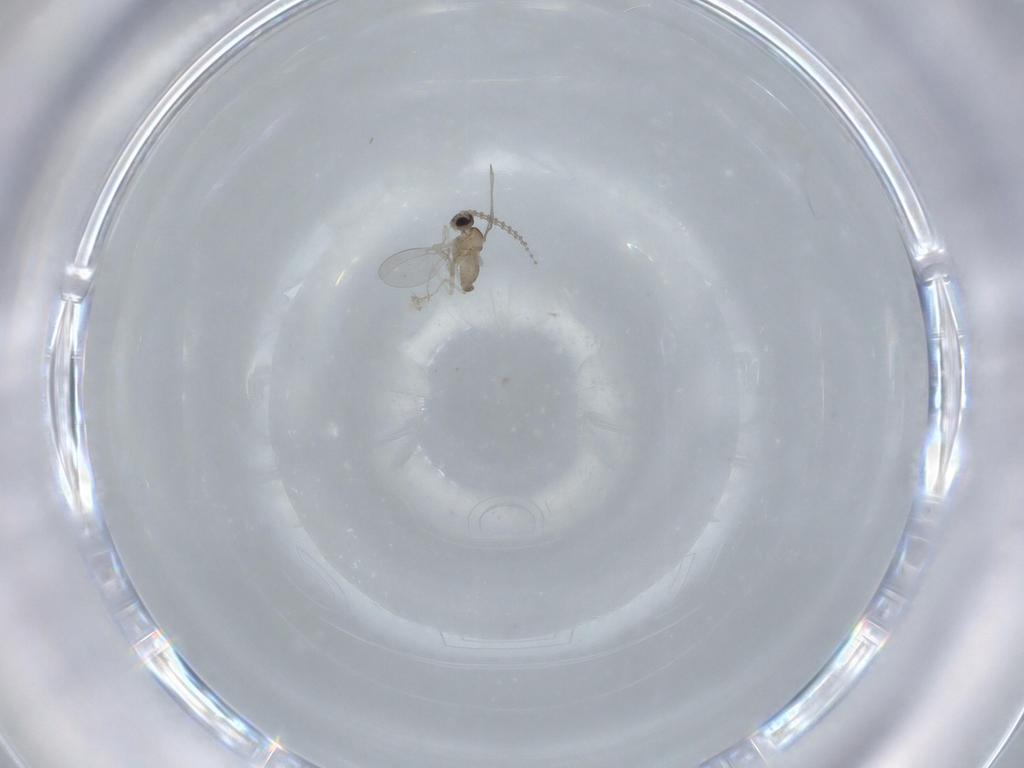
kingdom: Animalia
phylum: Arthropoda
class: Insecta
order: Diptera
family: Cecidomyiidae
